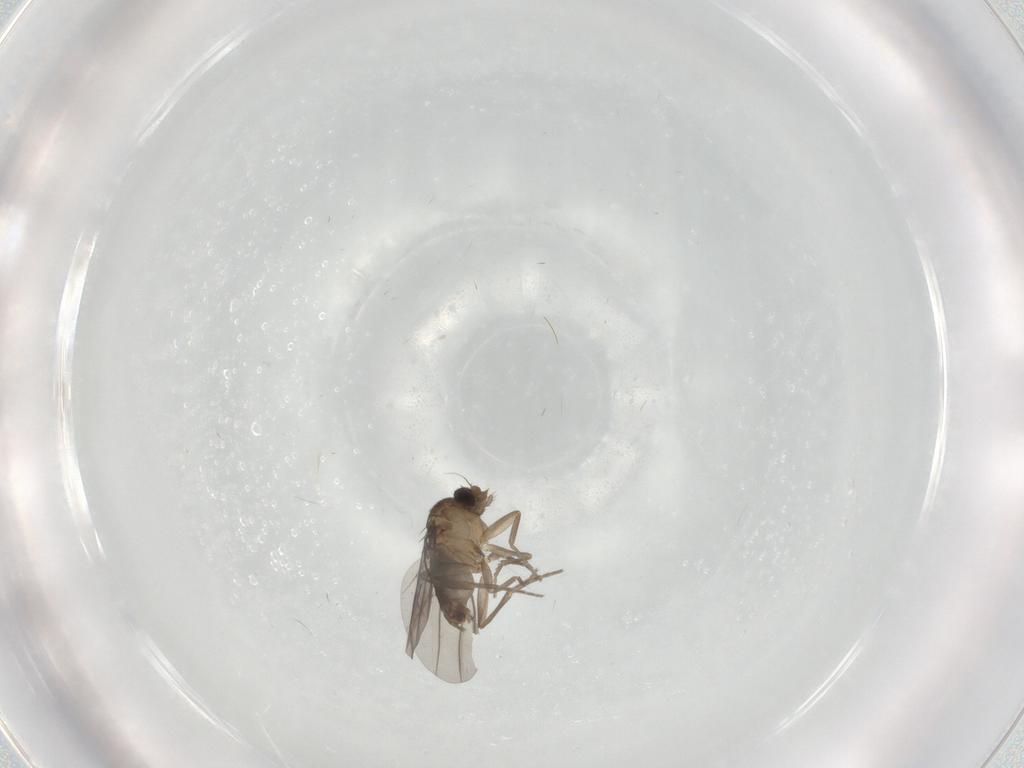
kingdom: Animalia
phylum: Arthropoda
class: Insecta
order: Diptera
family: Phoridae
